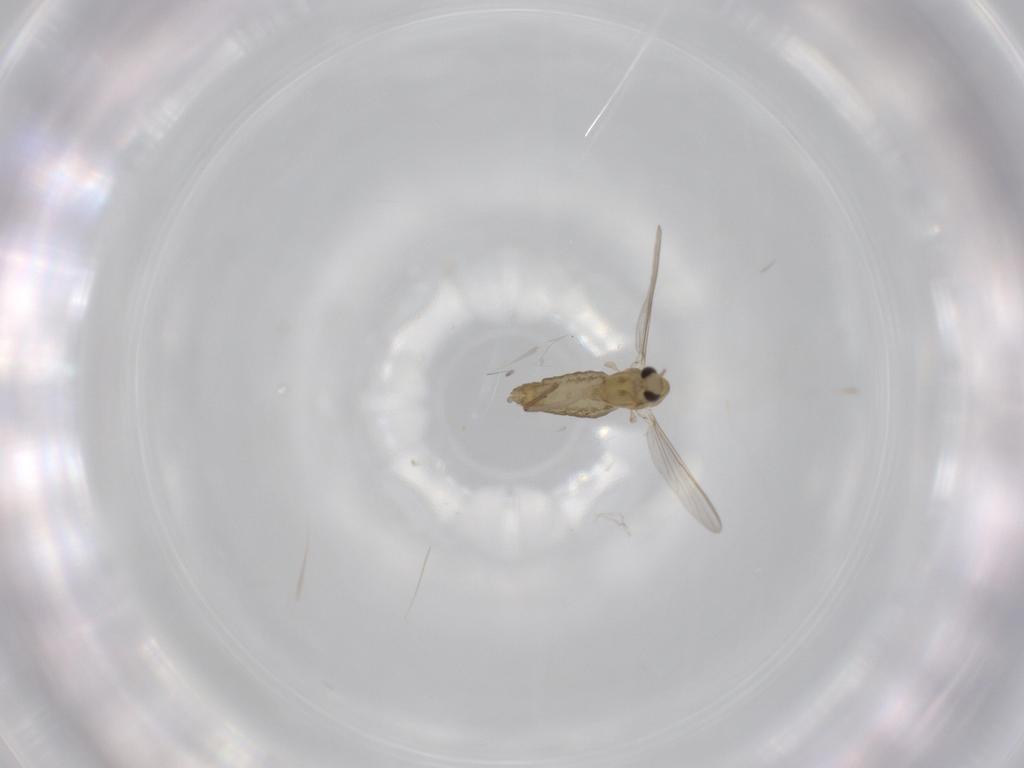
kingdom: Animalia
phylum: Arthropoda
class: Insecta
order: Diptera
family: Chironomidae
